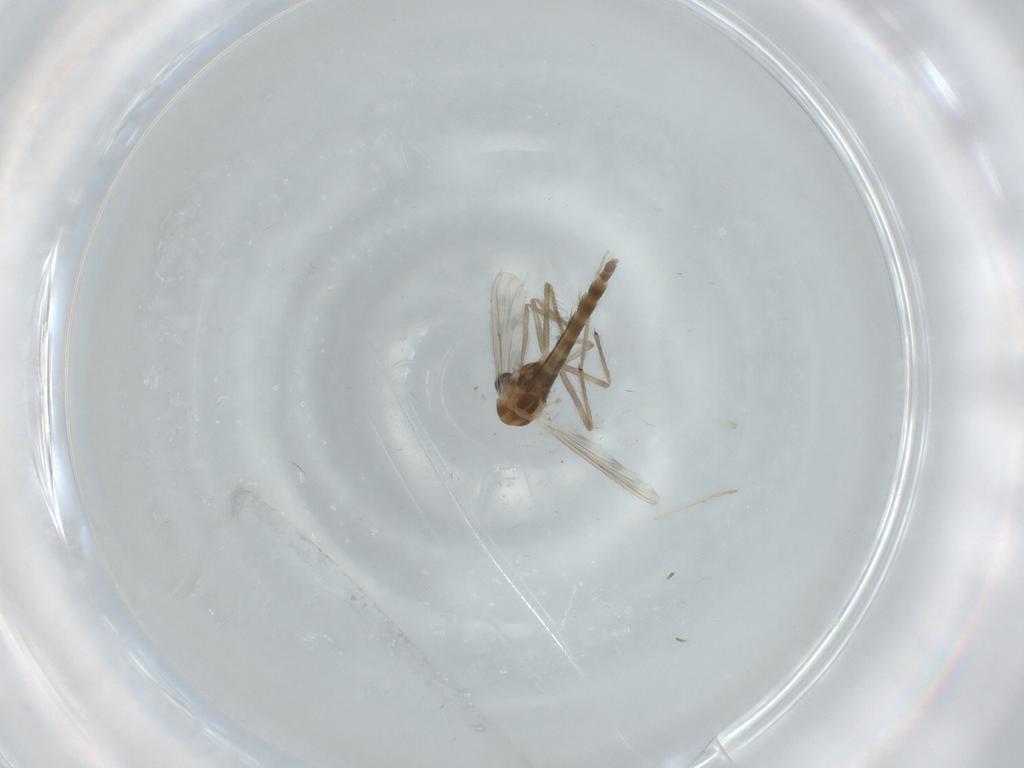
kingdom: Animalia
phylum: Arthropoda
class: Insecta
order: Diptera
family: Chironomidae
